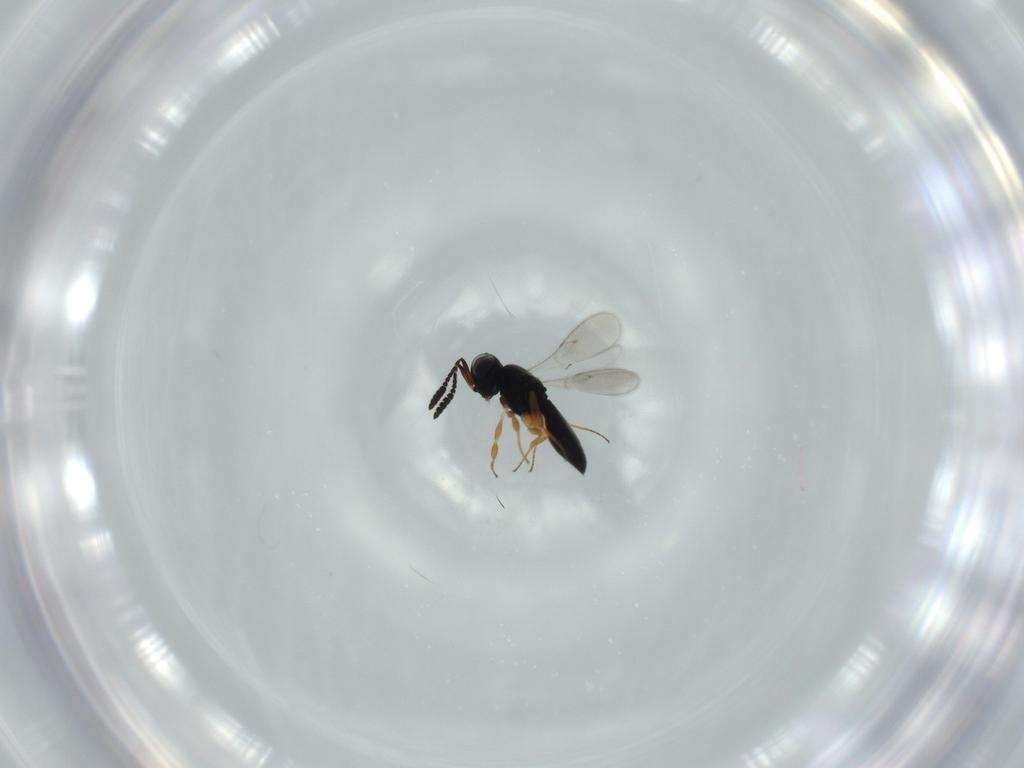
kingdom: Animalia
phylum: Arthropoda
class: Insecta
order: Hymenoptera
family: Scelionidae
